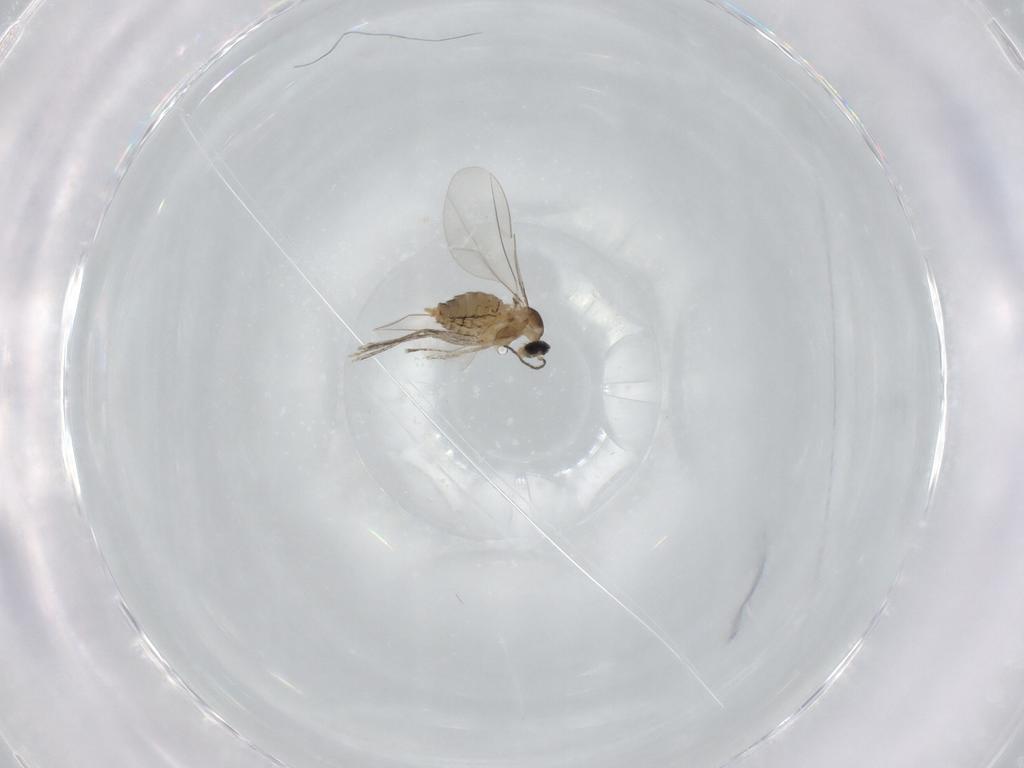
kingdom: Animalia
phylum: Arthropoda
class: Insecta
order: Diptera
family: Cecidomyiidae
